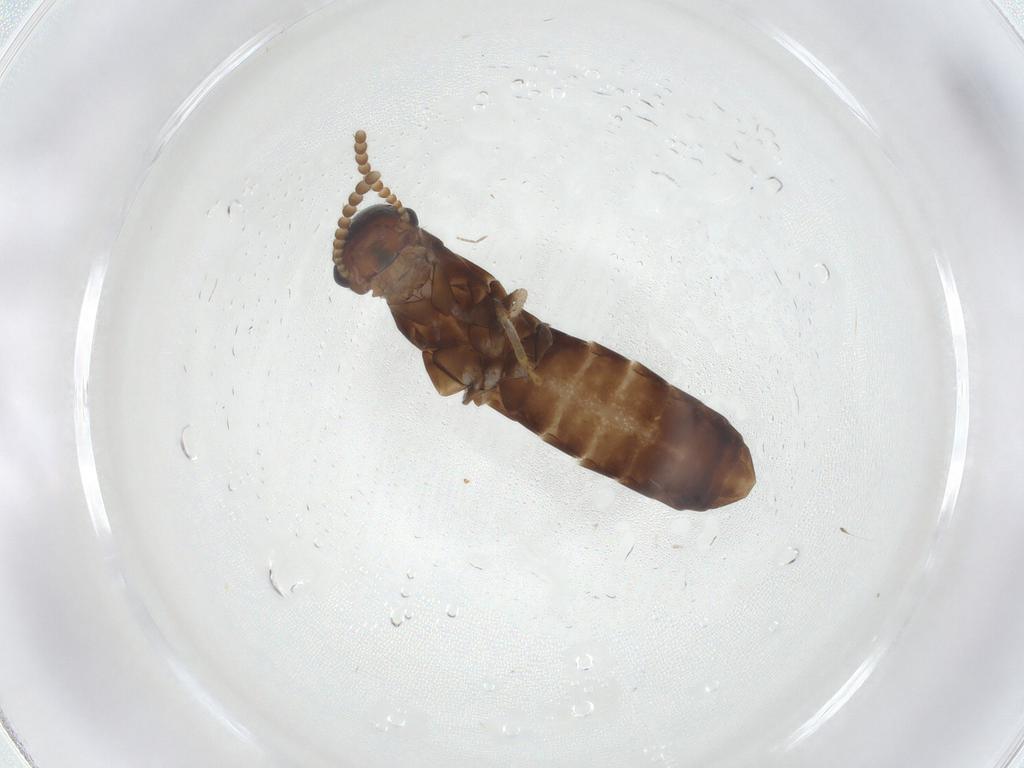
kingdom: Animalia
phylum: Arthropoda
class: Insecta
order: Blattodea
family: Kalotermitidae
